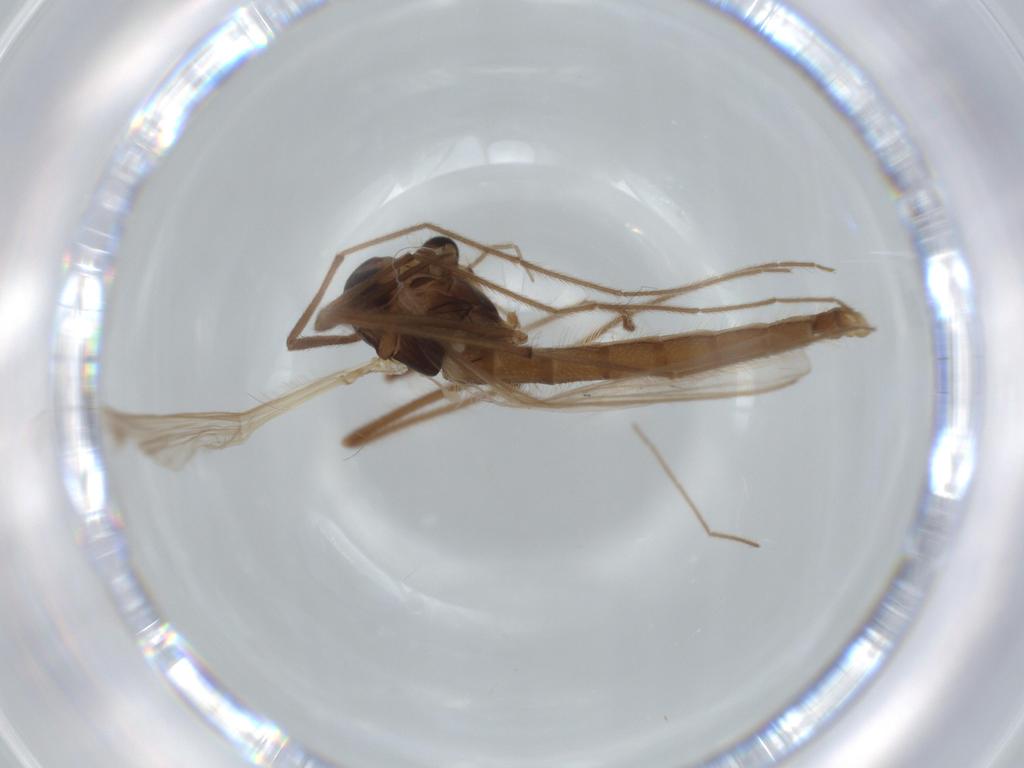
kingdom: Animalia
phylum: Arthropoda
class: Insecta
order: Diptera
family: Chironomidae
